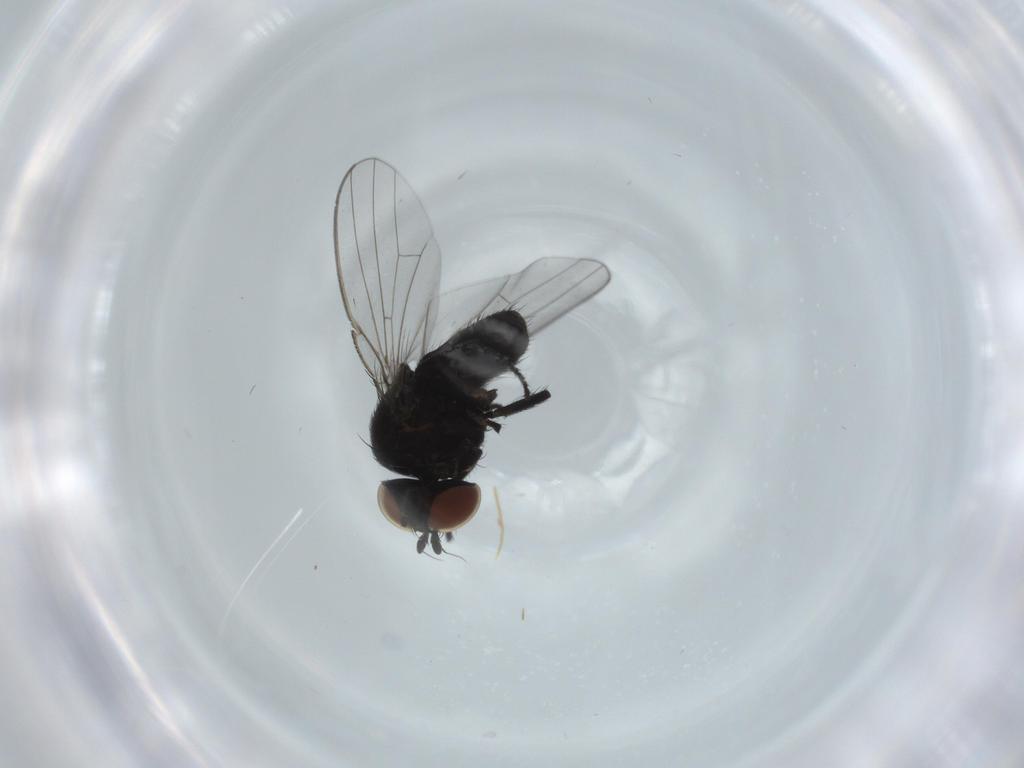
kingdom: Animalia
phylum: Arthropoda
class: Insecta
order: Diptera
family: Milichiidae
